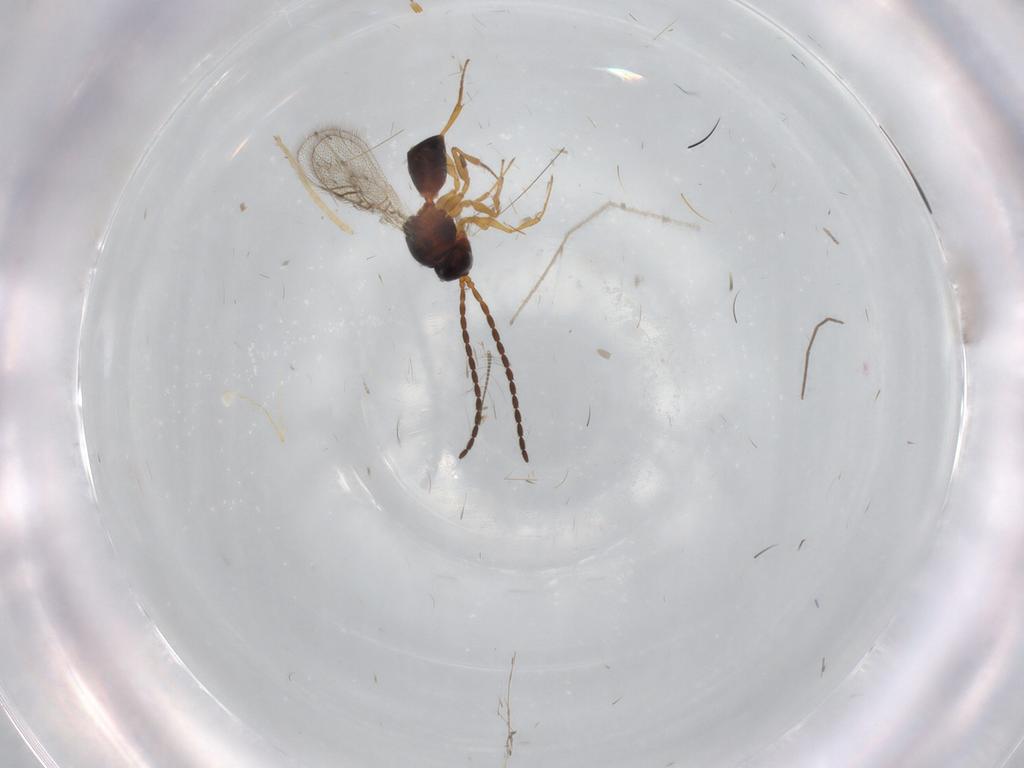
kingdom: Animalia
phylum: Arthropoda
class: Insecta
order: Hymenoptera
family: Figitidae
